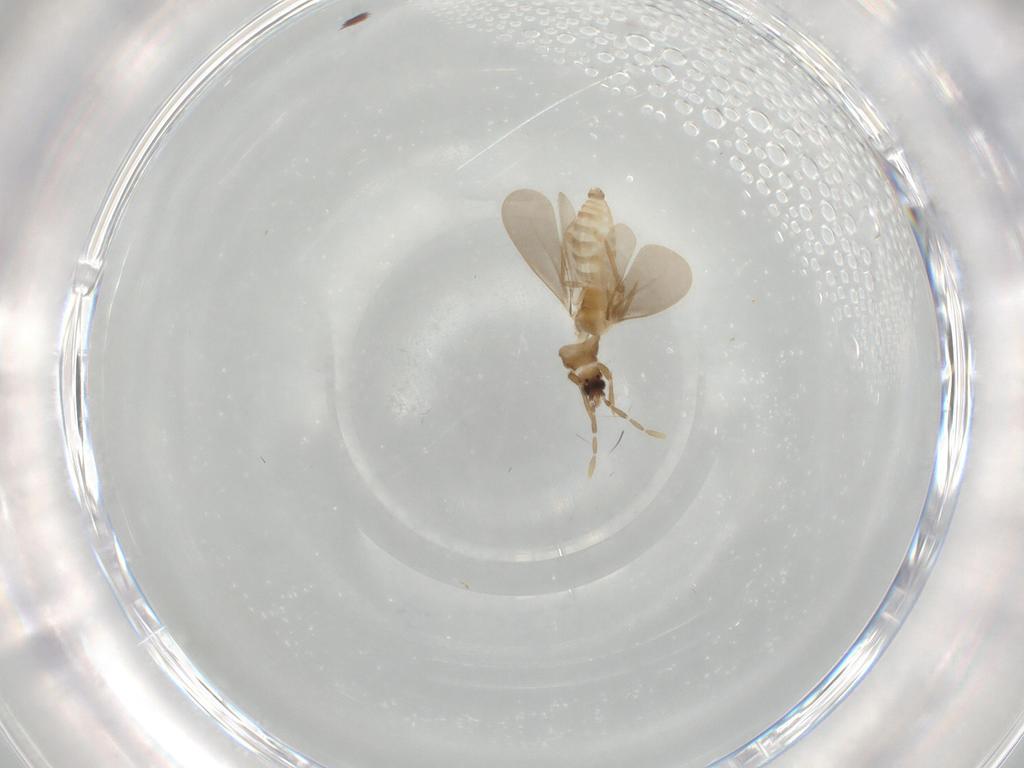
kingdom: Animalia
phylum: Arthropoda
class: Insecta
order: Hemiptera
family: Enicocephalidae
